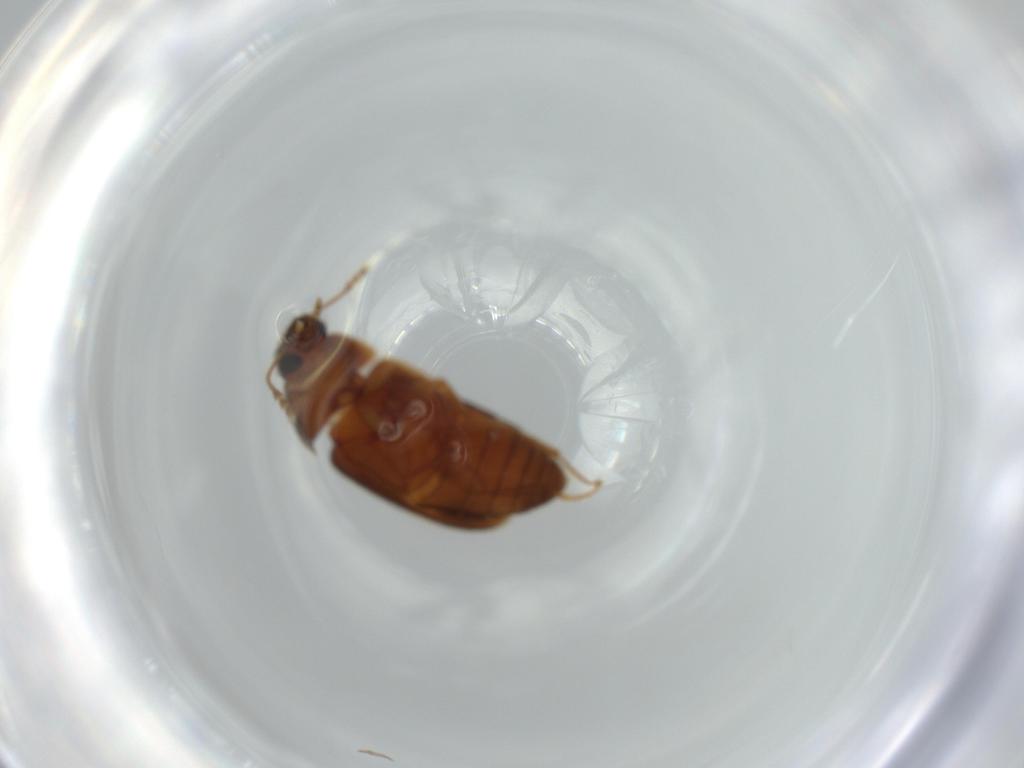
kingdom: Animalia
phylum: Arthropoda
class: Insecta
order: Coleoptera
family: Mycetophagidae
